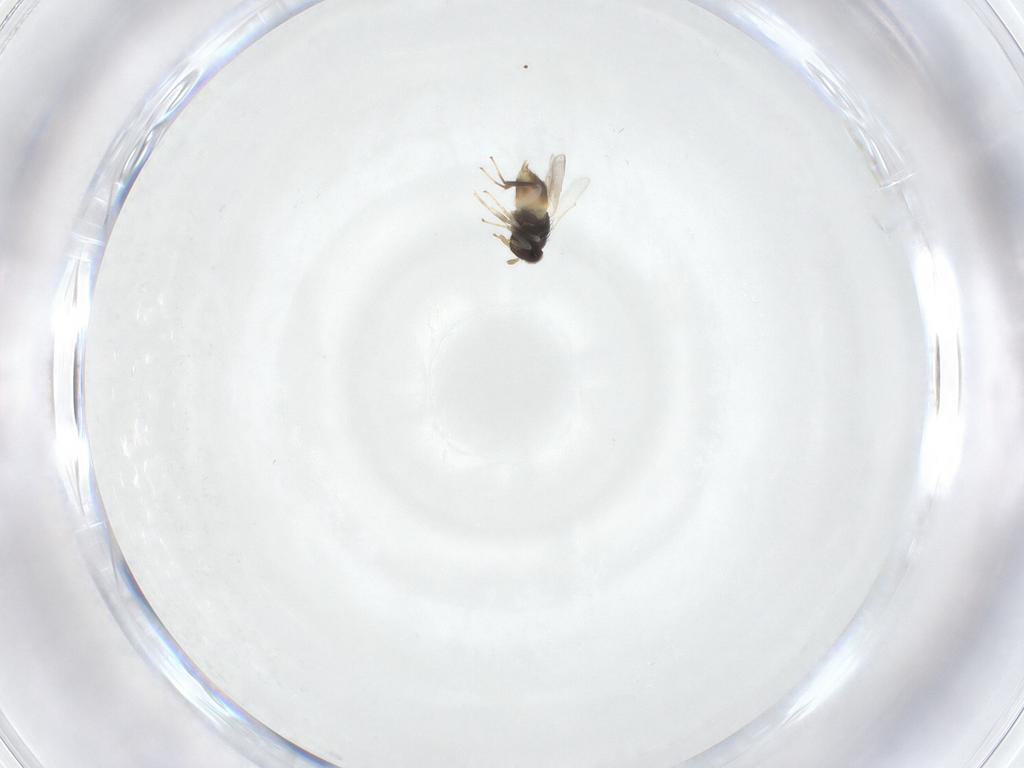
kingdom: Animalia
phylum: Arthropoda
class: Insecta
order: Hymenoptera
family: Aphelinidae
